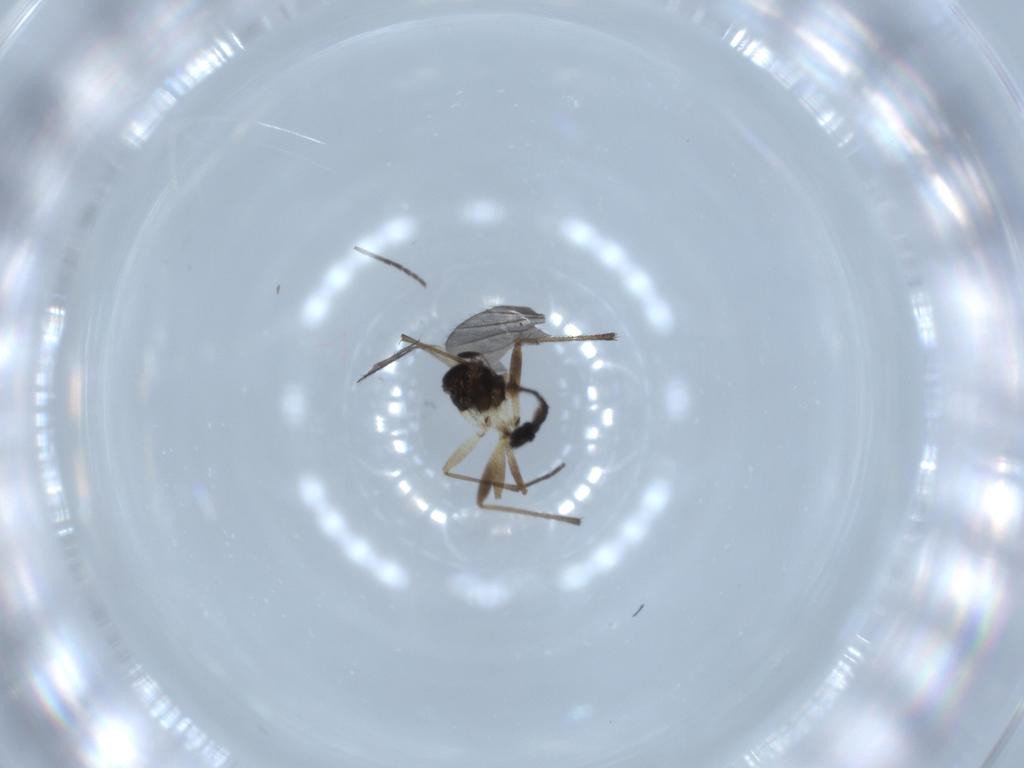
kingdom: Animalia
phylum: Arthropoda
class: Insecta
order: Diptera
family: Sciaridae
